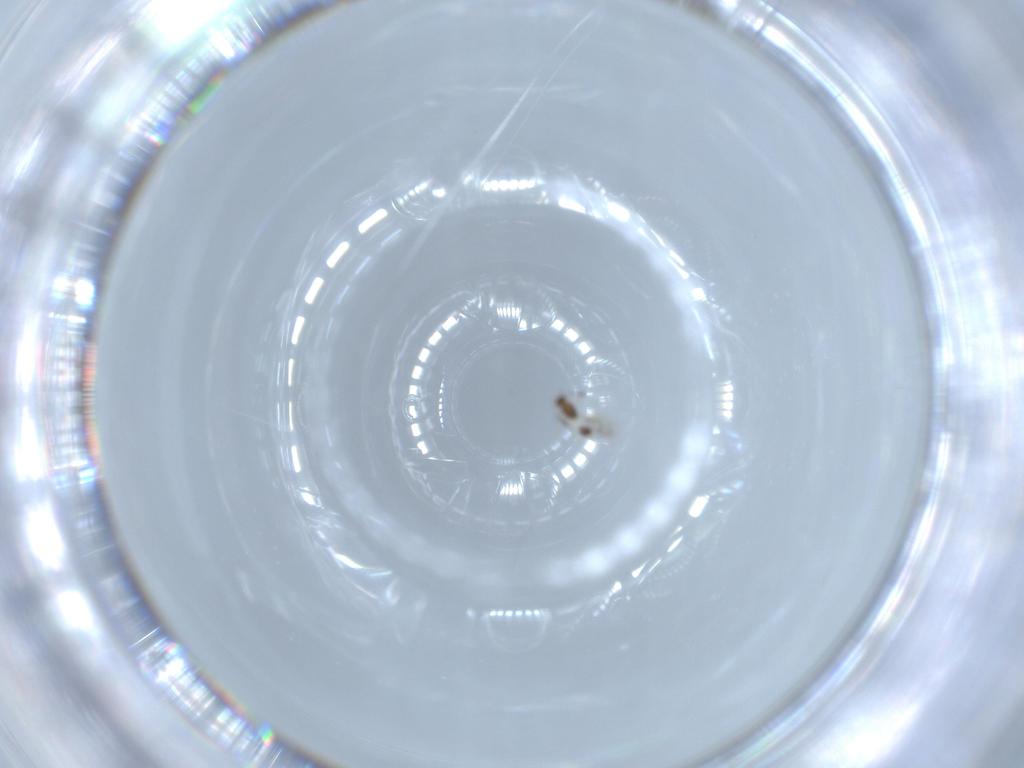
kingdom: Animalia
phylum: Arthropoda
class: Insecta
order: Hymenoptera
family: Mymarommatidae
